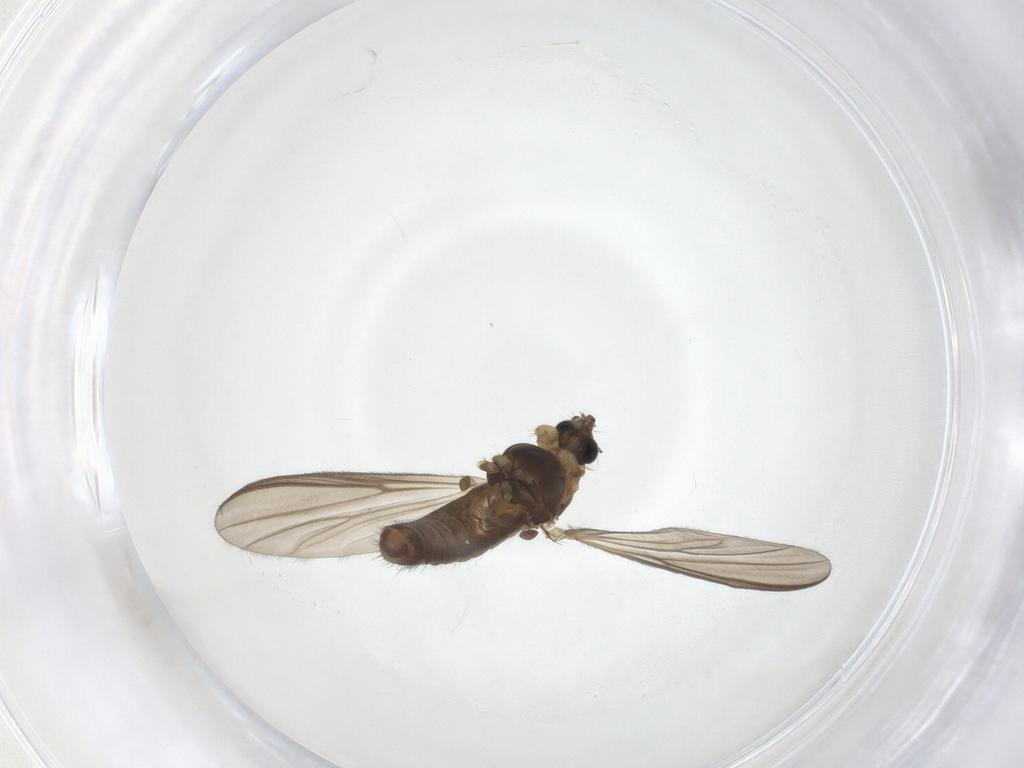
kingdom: Animalia
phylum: Arthropoda
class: Insecta
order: Diptera
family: Chironomidae
